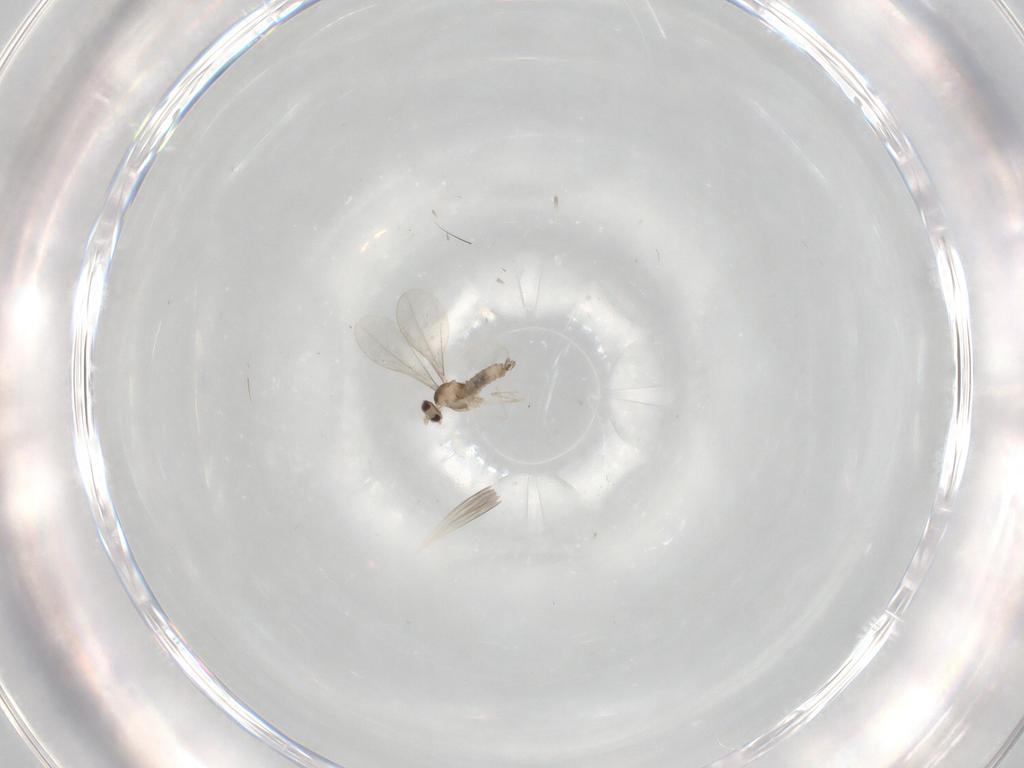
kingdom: Animalia
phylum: Arthropoda
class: Insecta
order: Diptera
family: Cecidomyiidae
